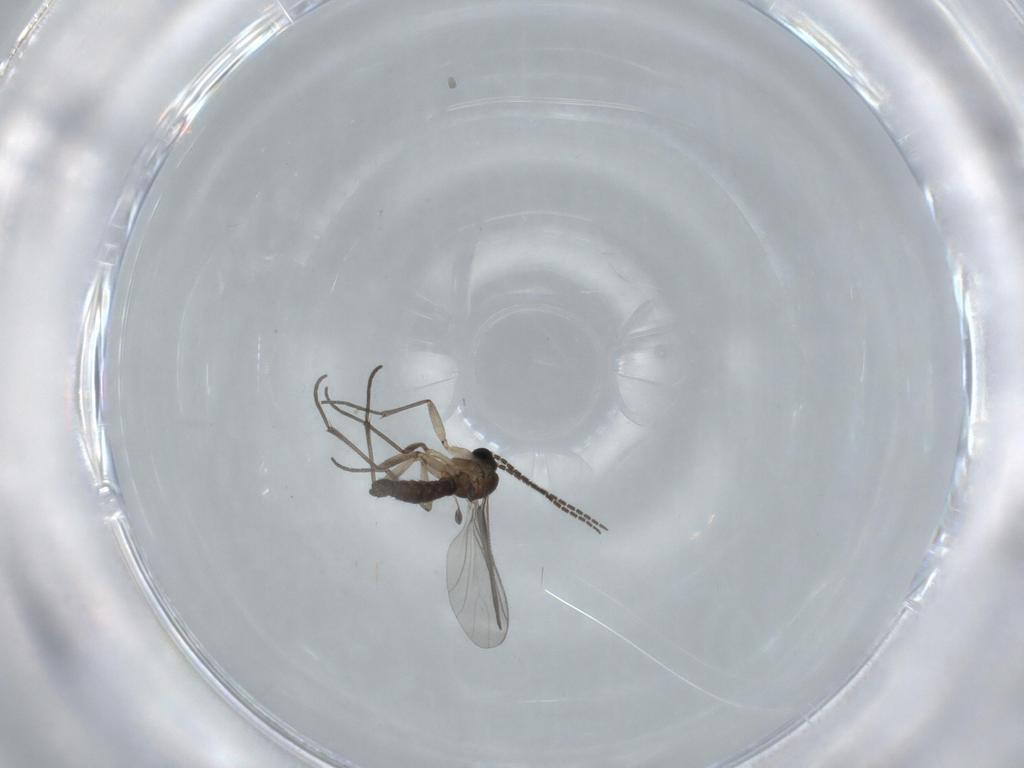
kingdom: Animalia
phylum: Arthropoda
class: Insecta
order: Diptera
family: Sciaridae
